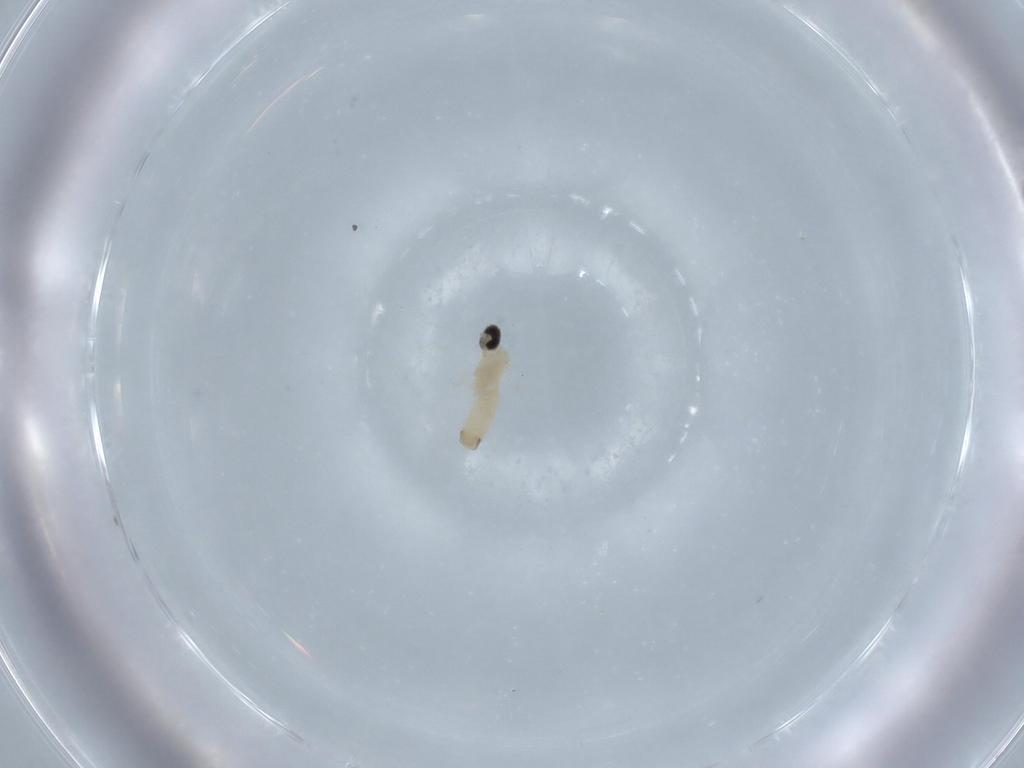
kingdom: Animalia
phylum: Arthropoda
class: Insecta
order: Diptera
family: Cecidomyiidae
